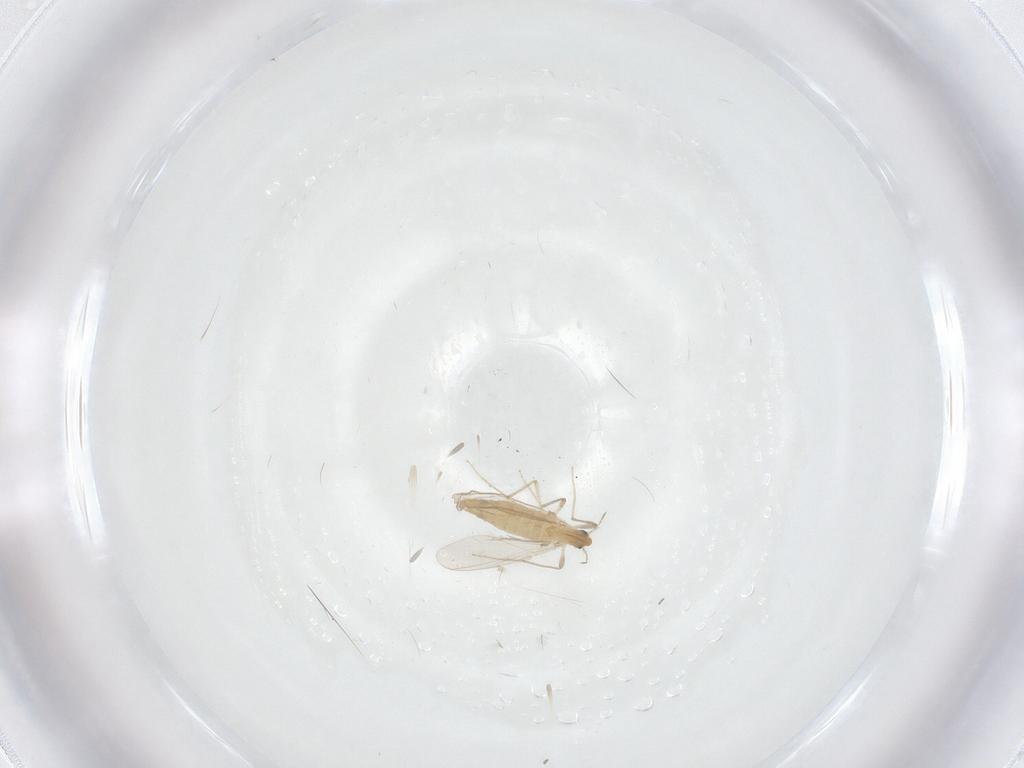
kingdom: Animalia
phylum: Arthropoda
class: Insecta
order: Diptera
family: Chironomidae
